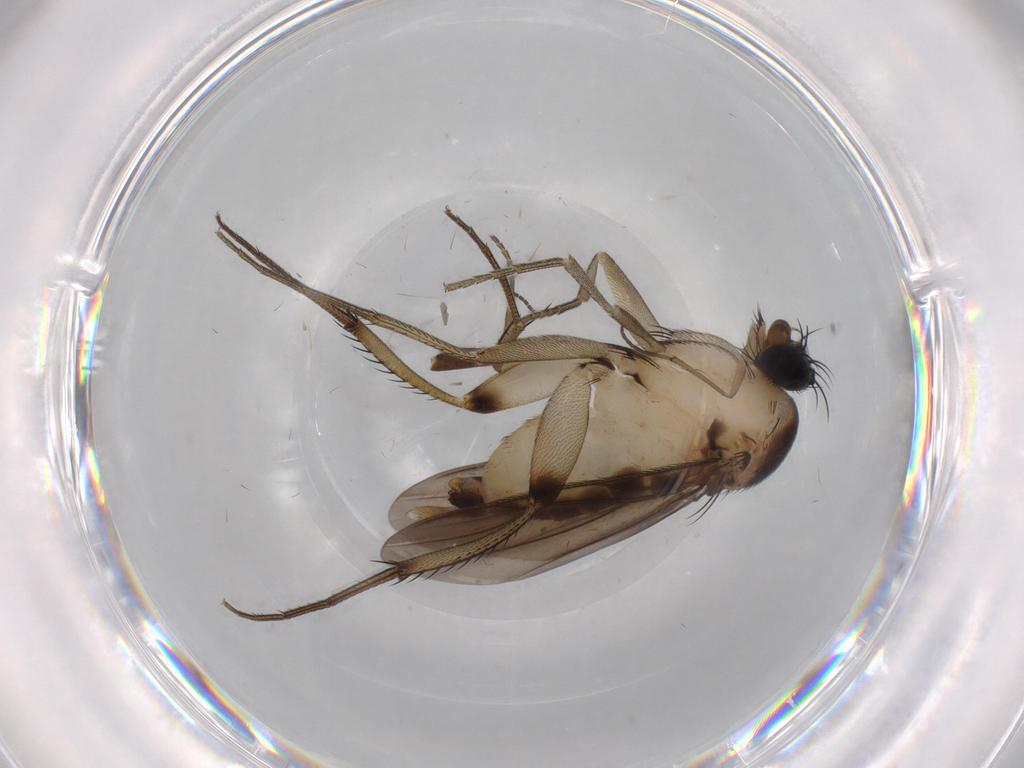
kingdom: Animalia
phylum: Arthropoda
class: Insecta
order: Diptera
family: Phoridae
